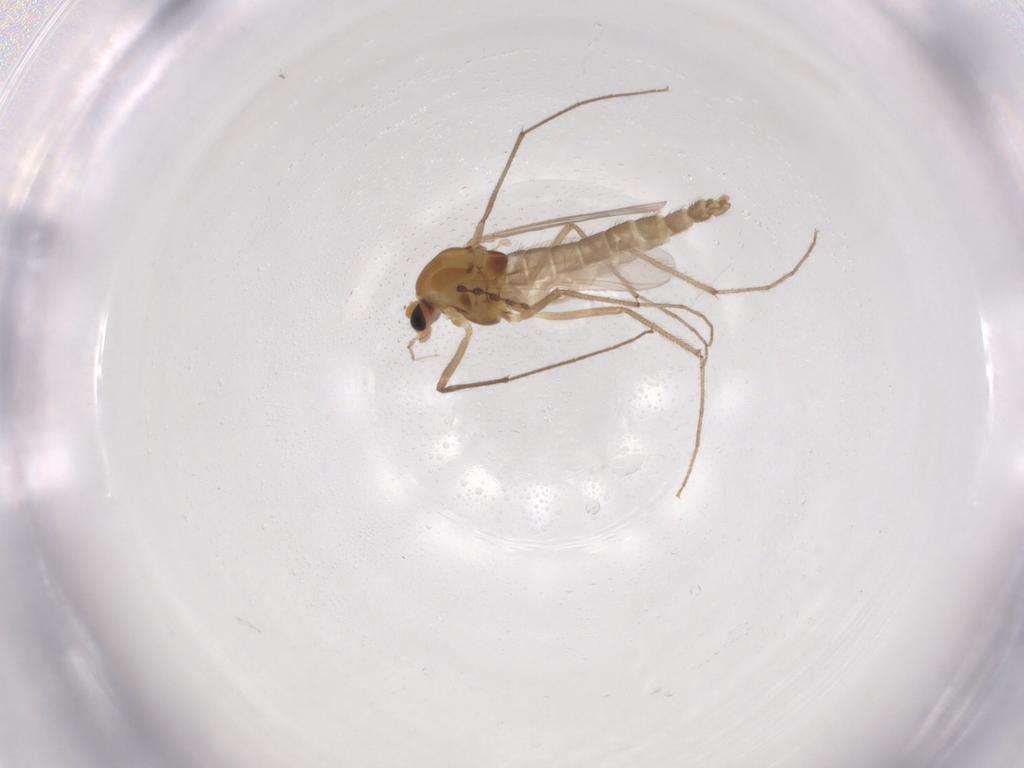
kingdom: Animalia
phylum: Arthropoda
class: Insecta
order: Diptera
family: Chironomidae
